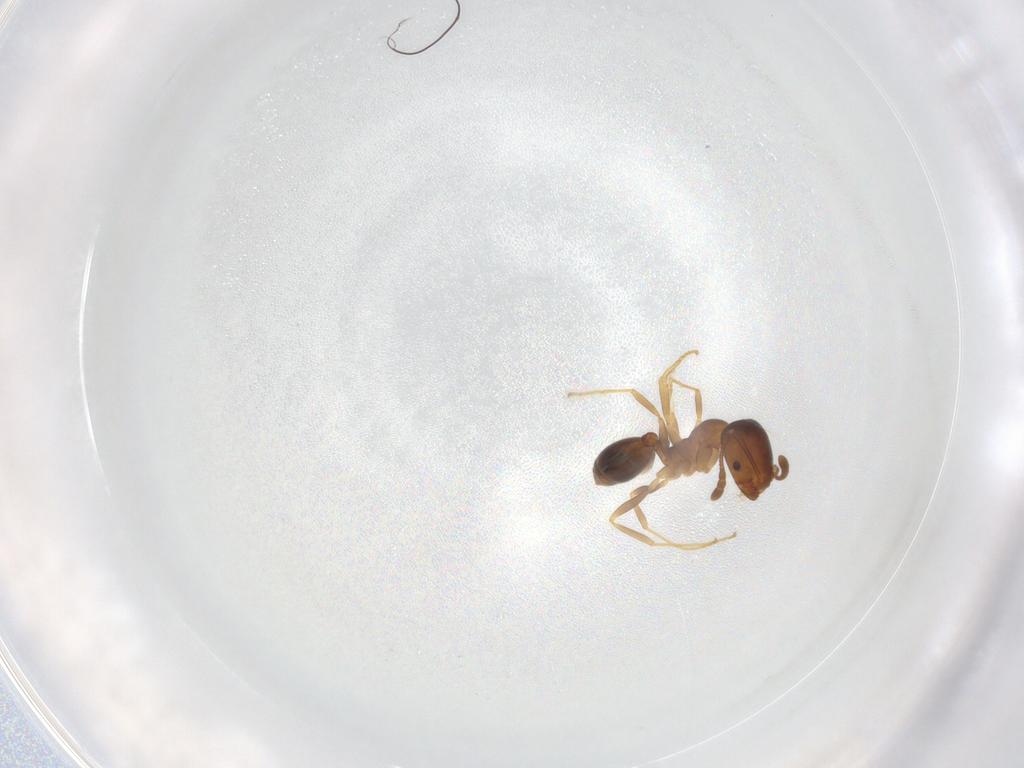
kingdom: Animalia
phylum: Arthropoda
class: Insecta
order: Hymenoptera
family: Formicidae
